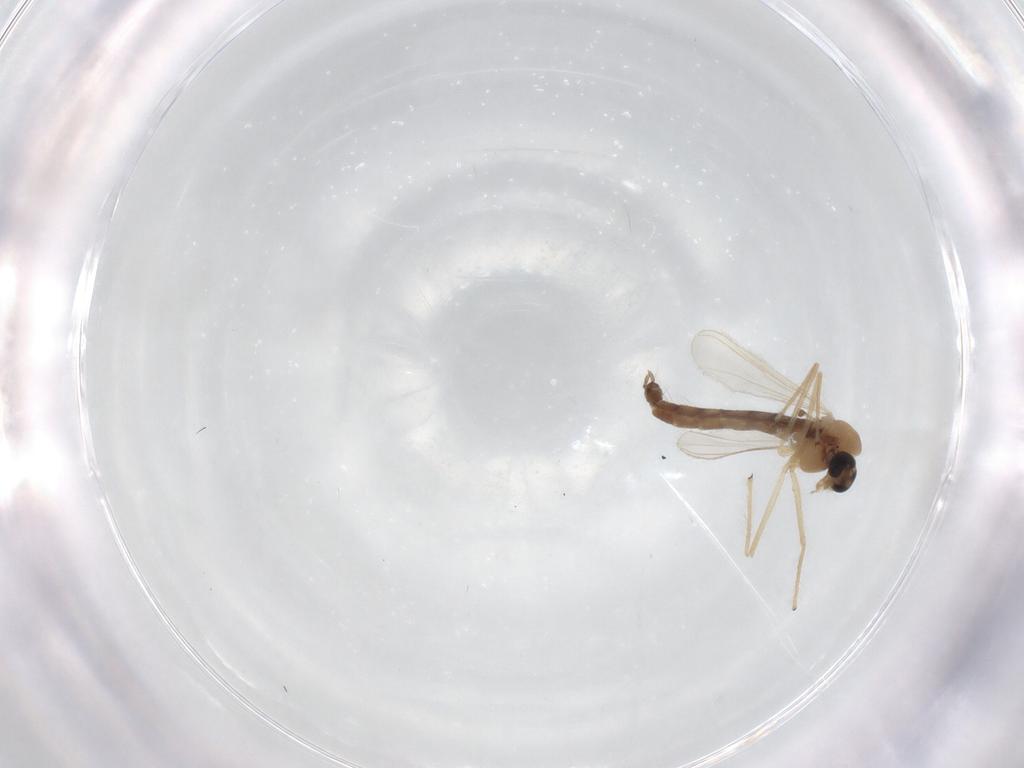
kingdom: Animalia
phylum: Arthropoda
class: Insecta
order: Diptera
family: Chironomidae
